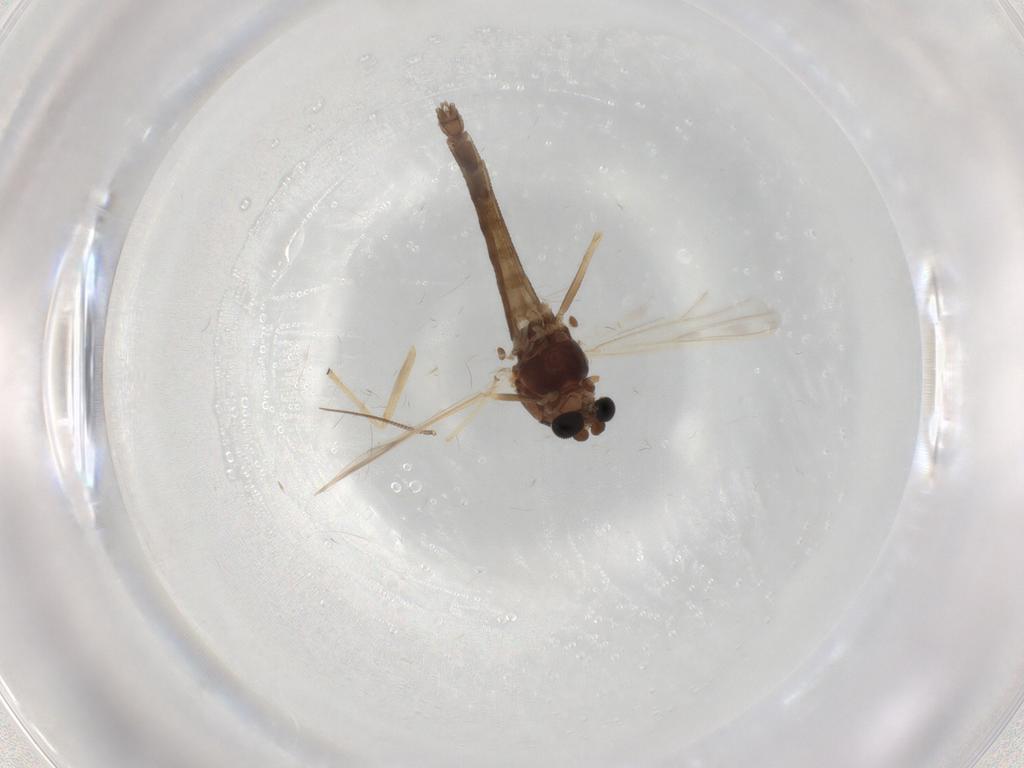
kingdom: Animalia
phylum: Arthropoda
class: Insecta
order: Diptera
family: Chironomidae
